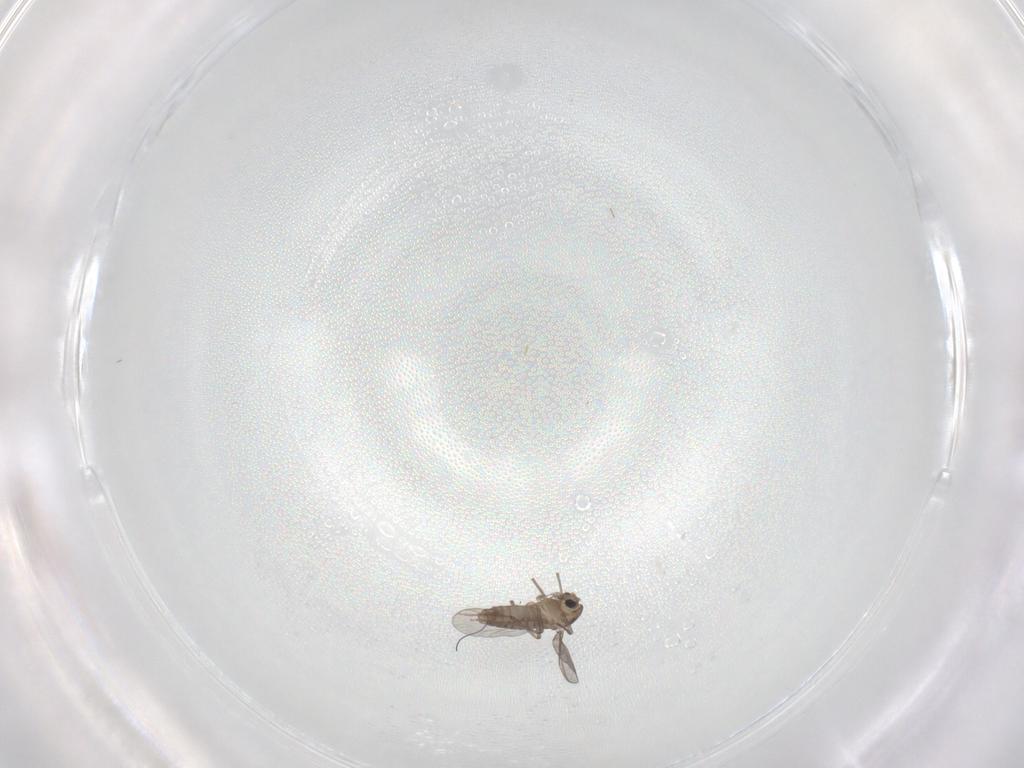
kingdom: Animalia
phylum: Arthropoda
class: Insecta
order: Diptera
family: Chironomidae
